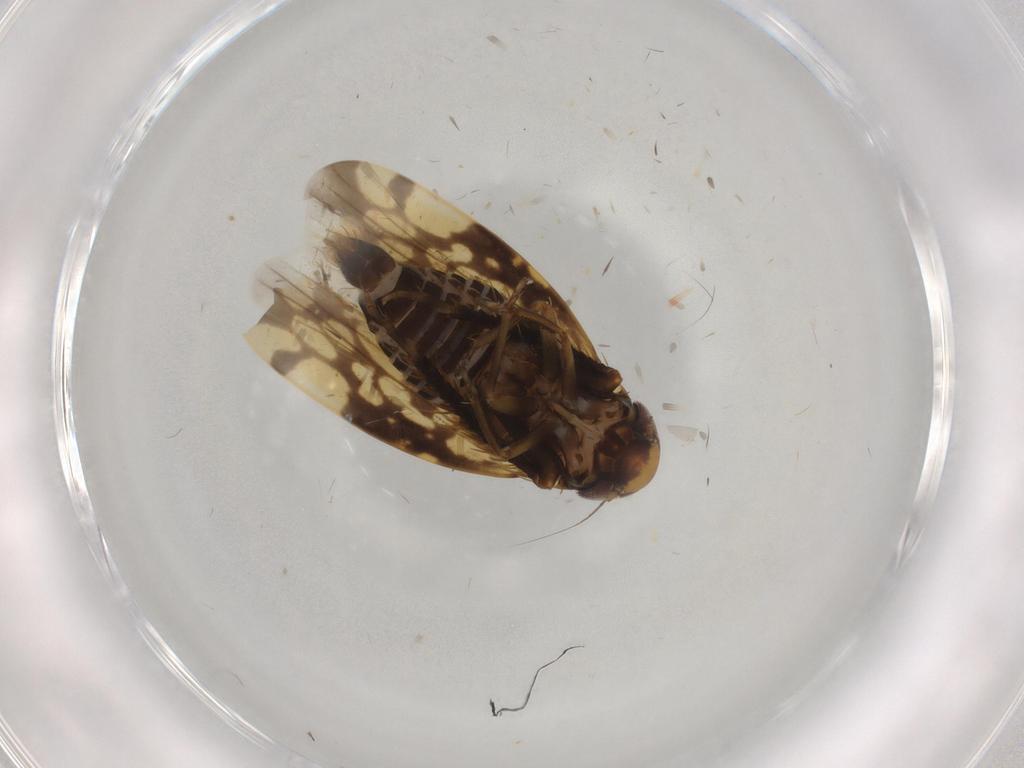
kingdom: Animalia
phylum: Arthropoda
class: Insecta
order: Hemiptera
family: Cicadellidae
